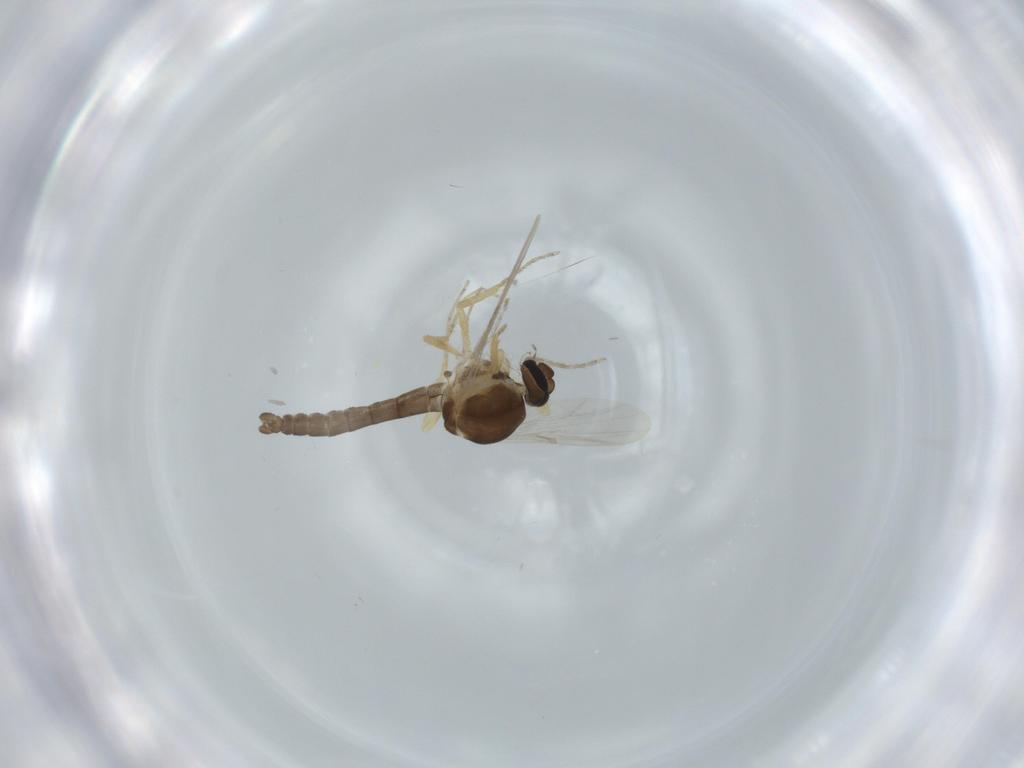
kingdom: Animalia
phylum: Arthropoda
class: Insecta
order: Diptera
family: Ceratopogonidae
